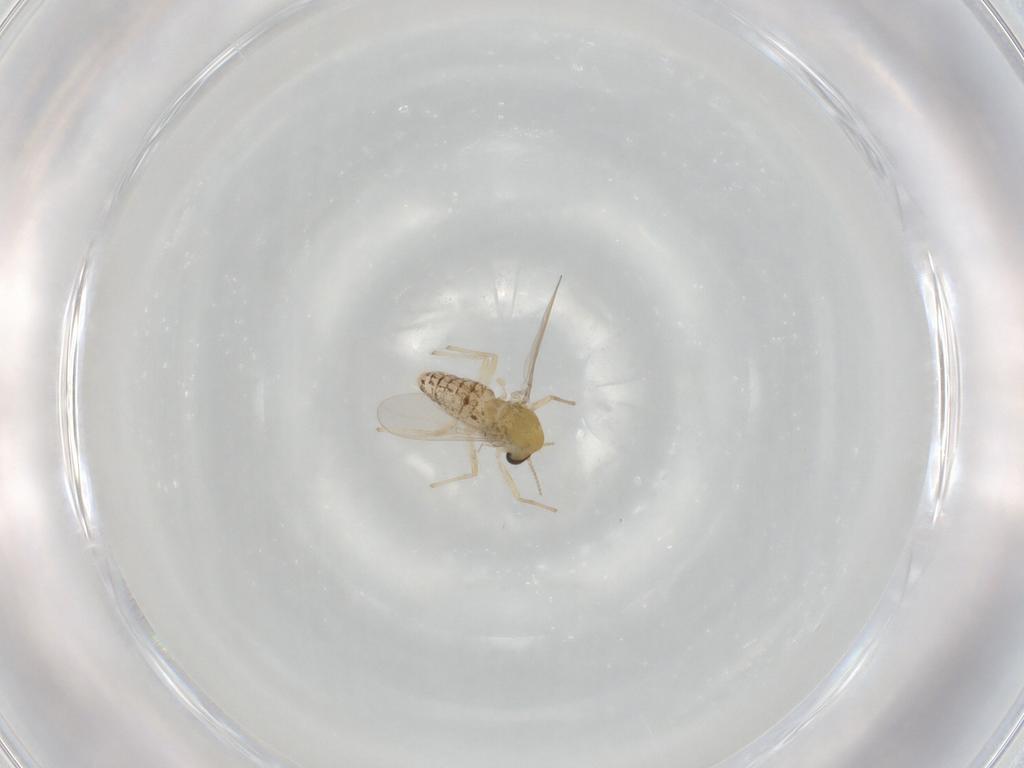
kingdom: Animalia
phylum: Arthropoda
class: Insecta
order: Diptera
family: Chironomidae
